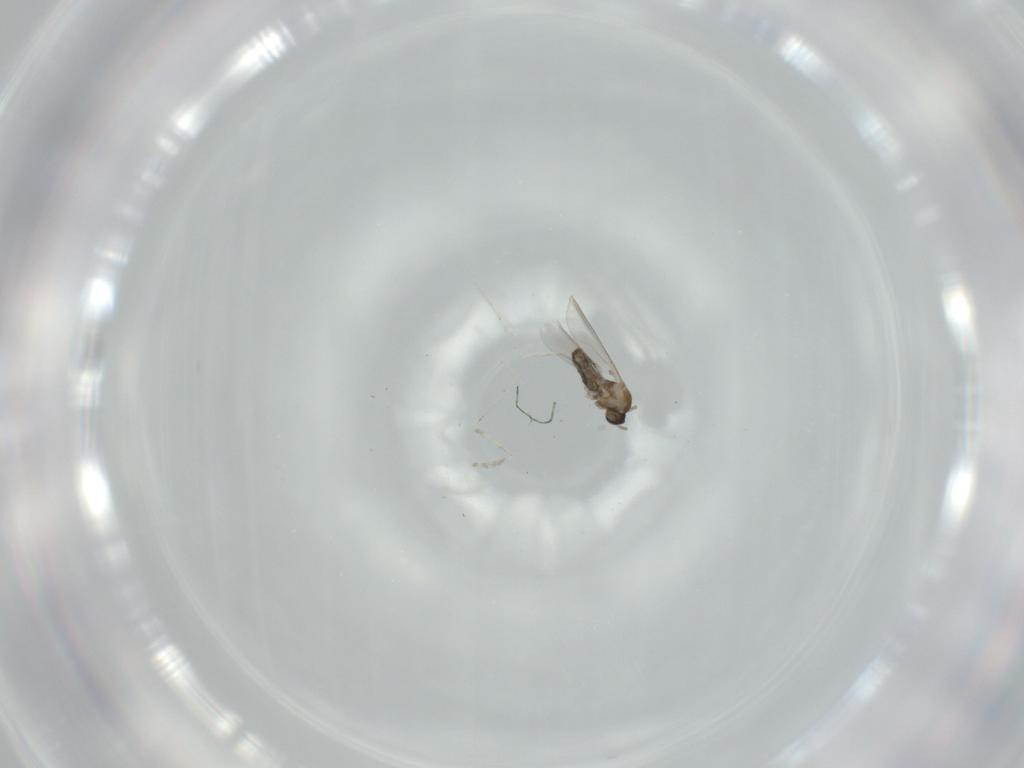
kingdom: Animalia
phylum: Arthropoda
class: Insecta
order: Diptera
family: Cecidomyiidae
